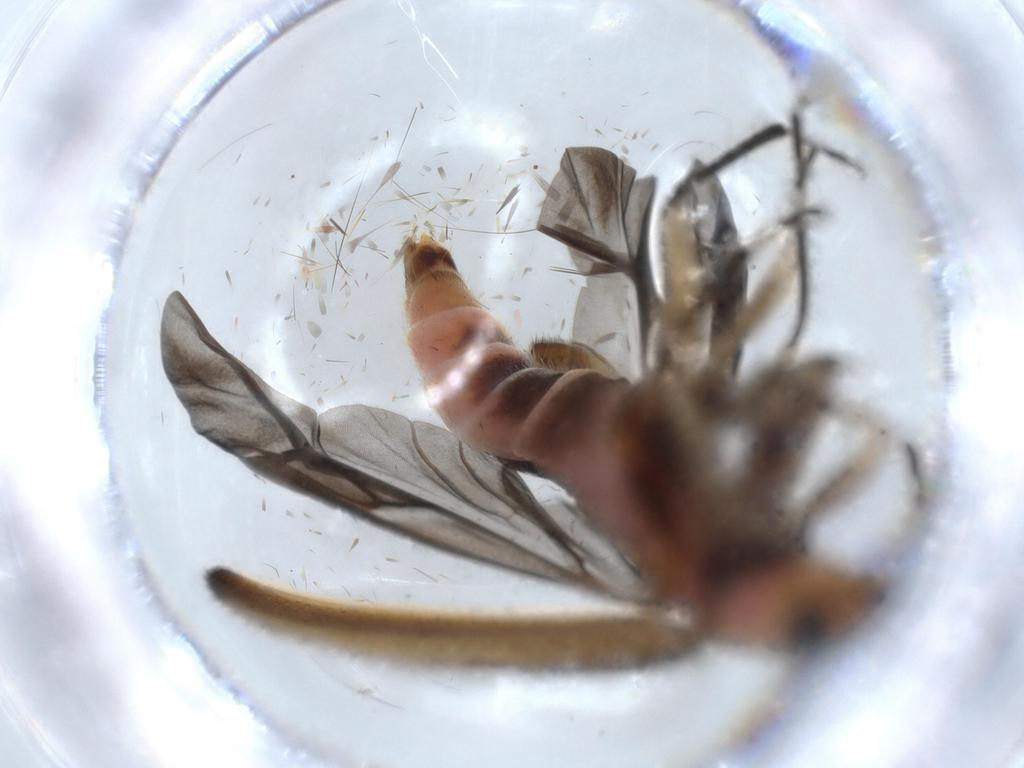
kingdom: Animalia
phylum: Arthropoda
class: Insecta
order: Coleoptera
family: Cleridae
